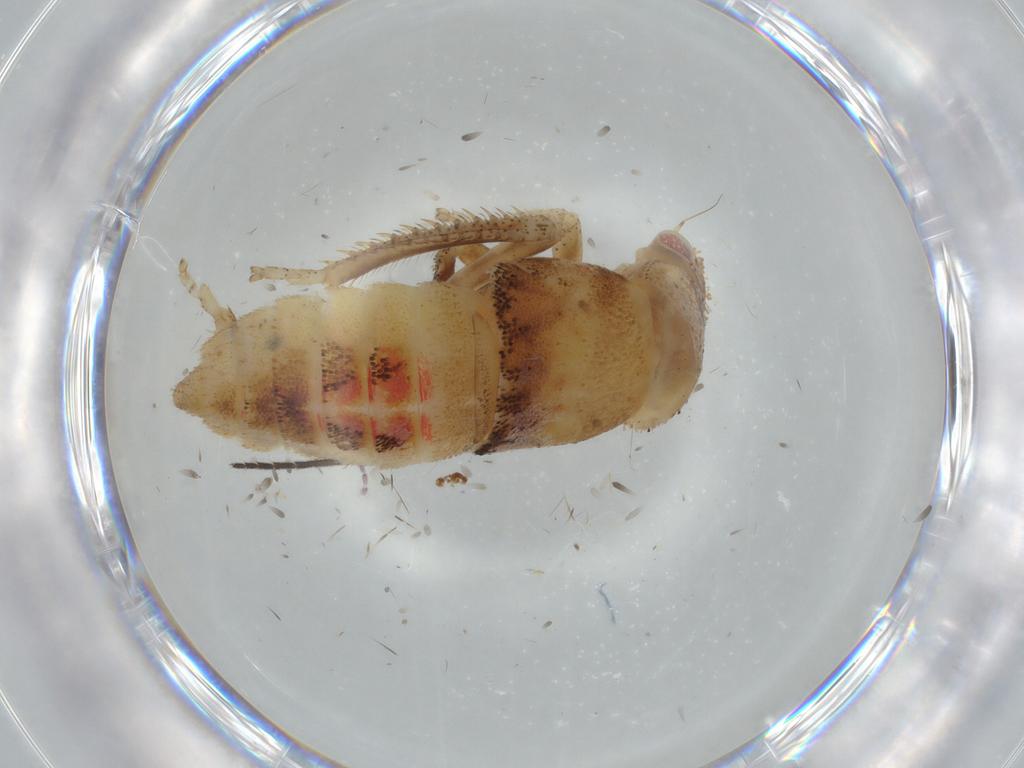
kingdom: Animalia
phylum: Arthropoda
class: Insecta
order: Hemiptera
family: Cicadellidae
